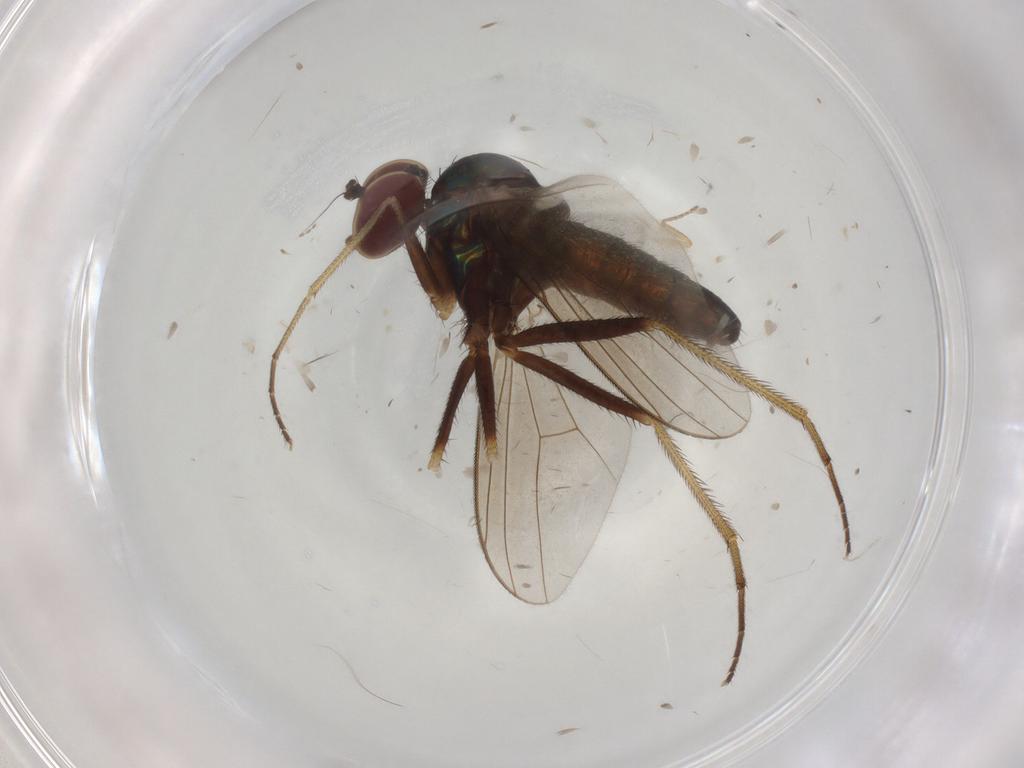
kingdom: Animalia
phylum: Arthropoda
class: Insecta
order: Diptera
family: Dolichopodidae
